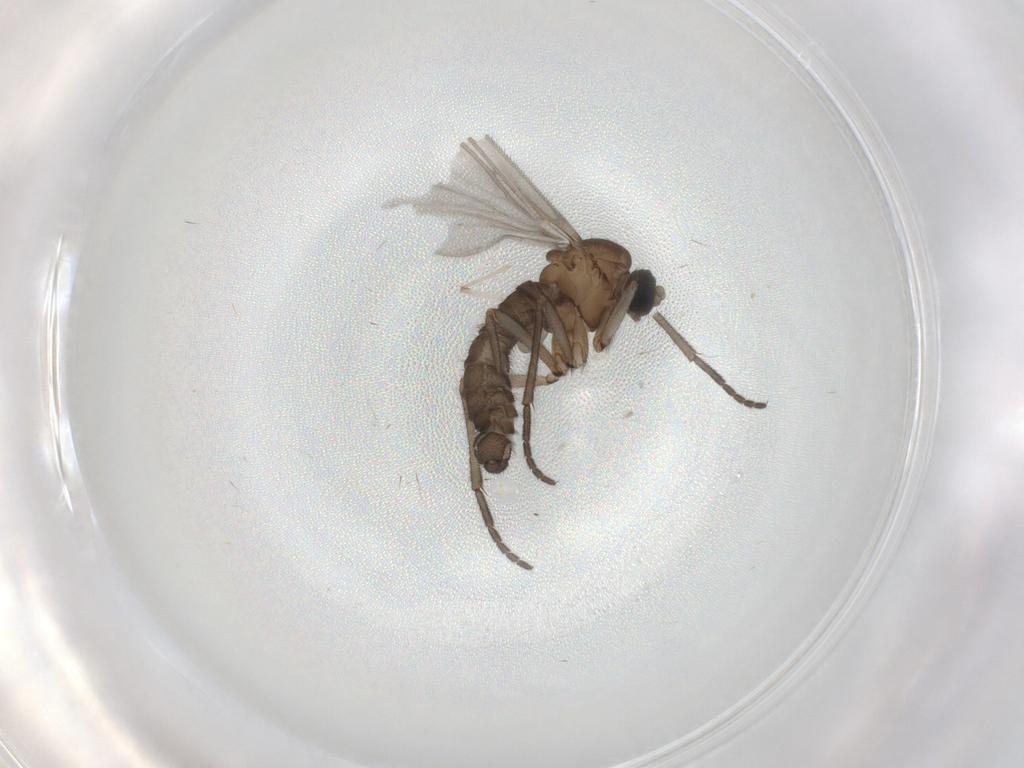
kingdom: Animalia
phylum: Arthropoda
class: Insecta
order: Diptera
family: Sciaridae
